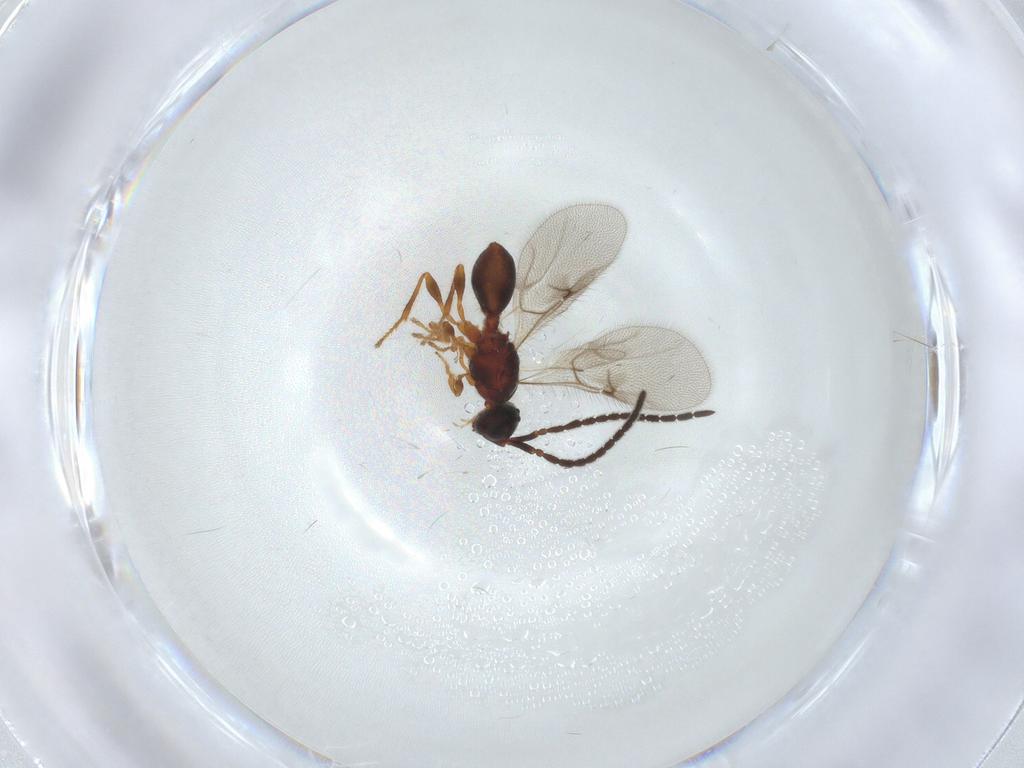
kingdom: Animalia
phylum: Arthropoda
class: Insecta
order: Hymenoptera
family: Diapriidae
